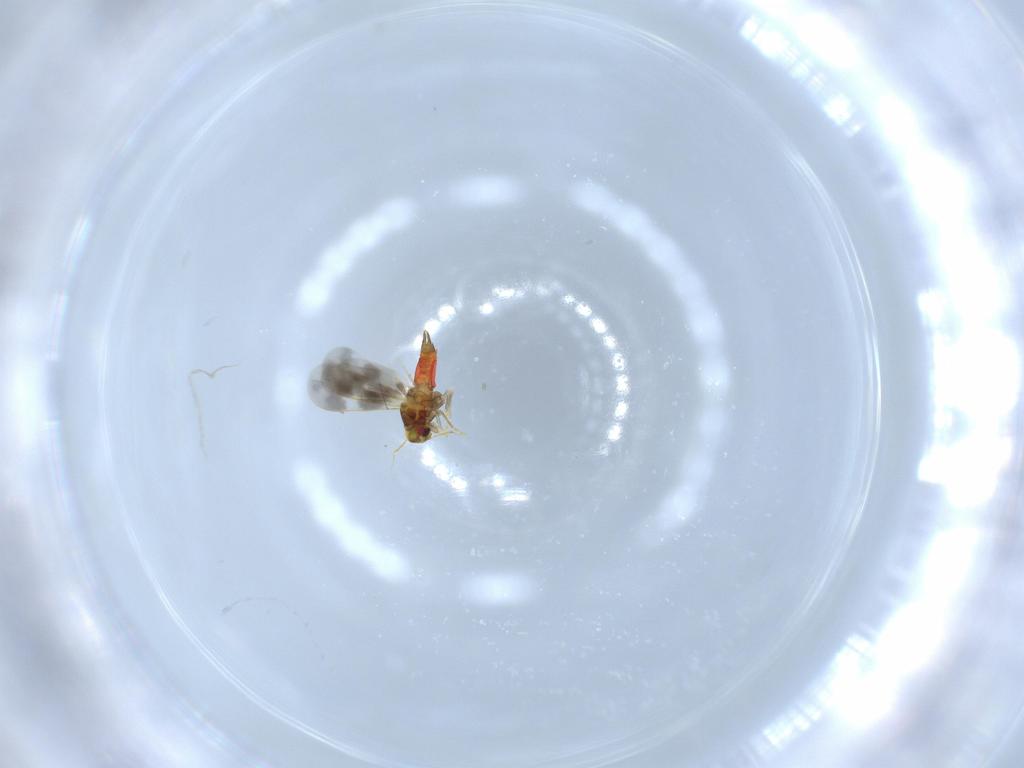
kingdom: Animalia
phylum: Arthropoda
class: Insecta
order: Hemiptera
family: Aleyrodidae
